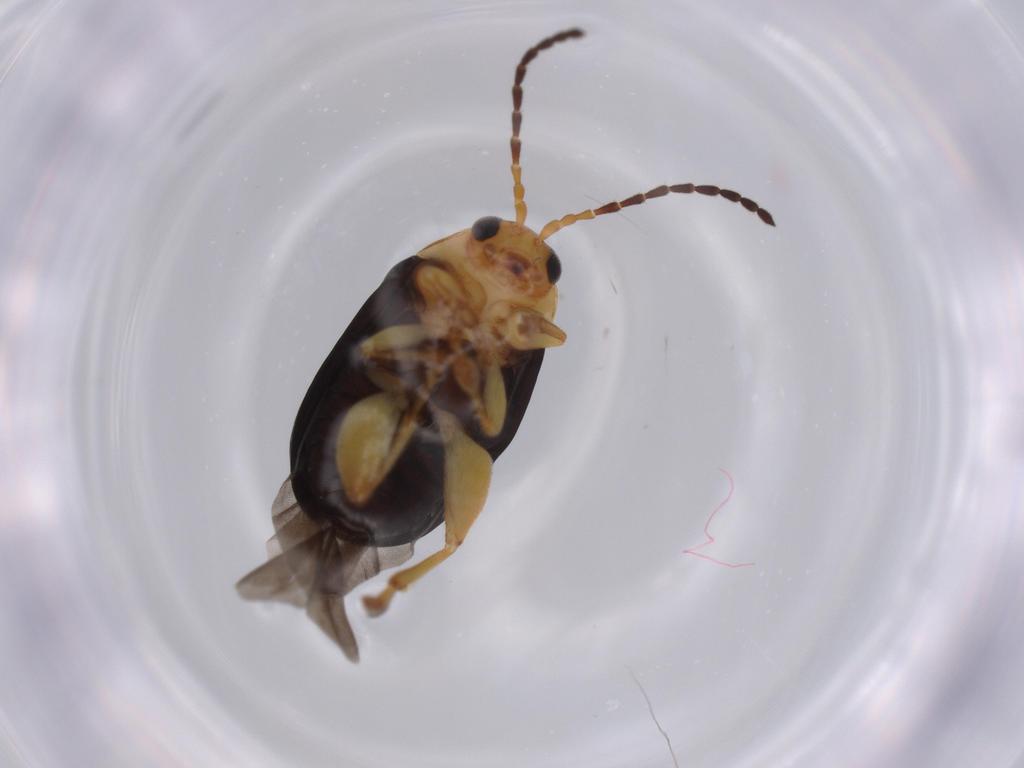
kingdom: Animalia
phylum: Arthropoda
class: Insecta
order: Coleoptera
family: Chrysomelidae
